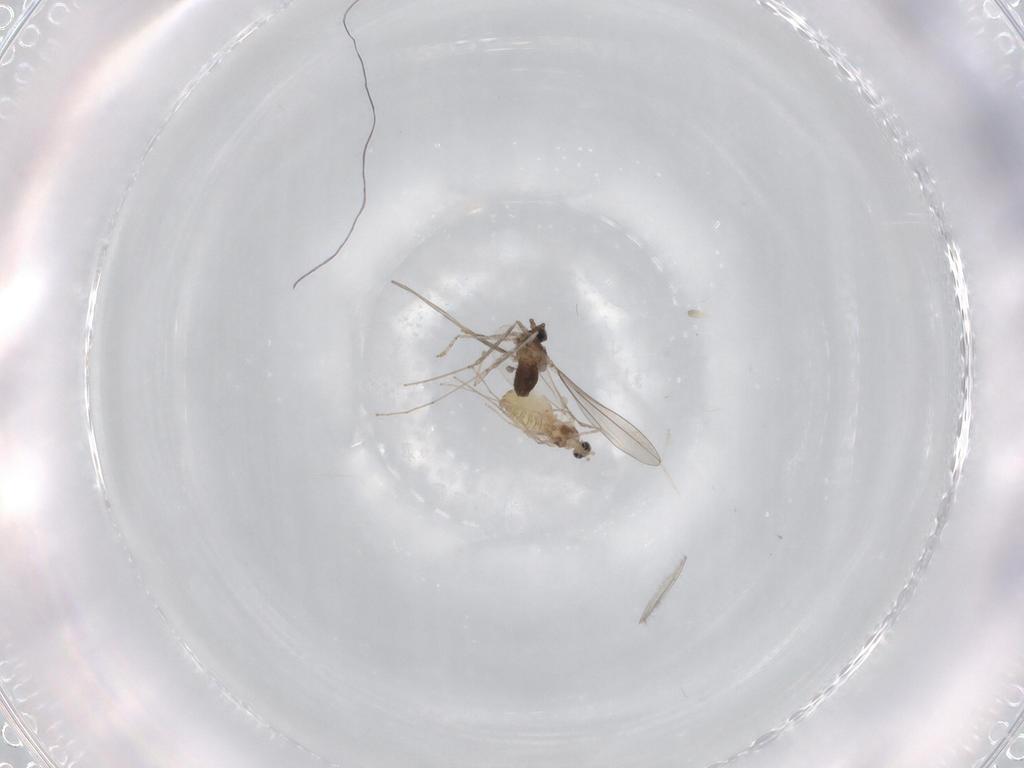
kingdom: Animalia
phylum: Arthropoda
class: Insecta
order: Diptera
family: Cecidomyiidae
